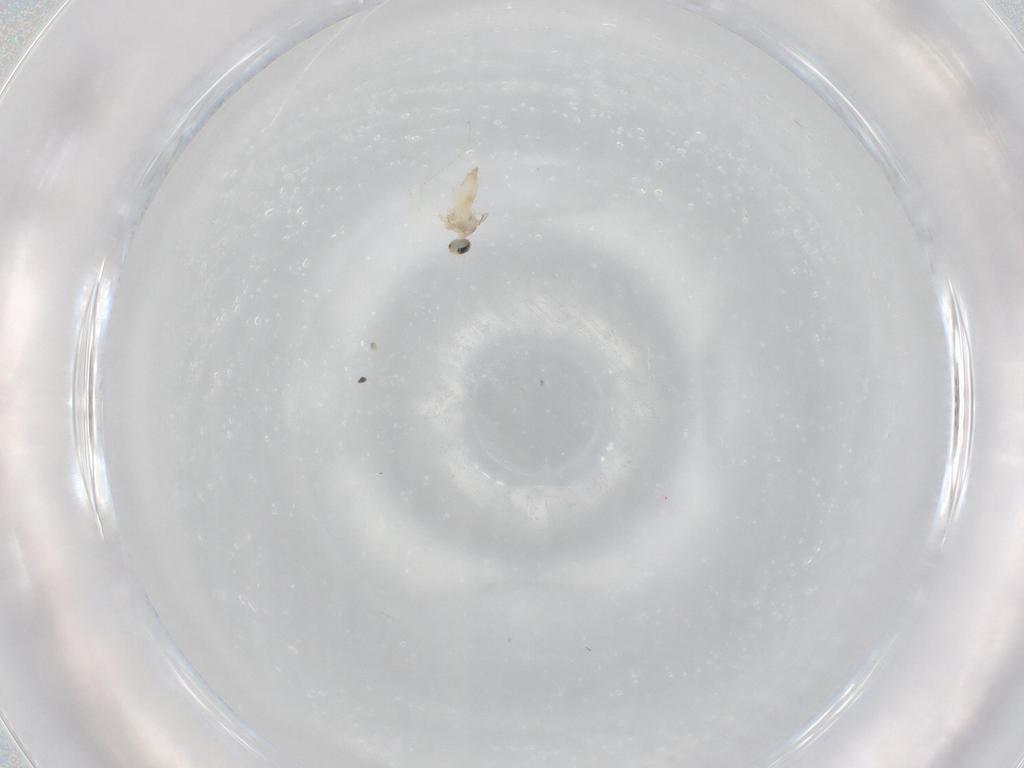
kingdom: Animalia
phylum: Arthropoda
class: Insecta
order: Diptera
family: Cecidomyiidae
